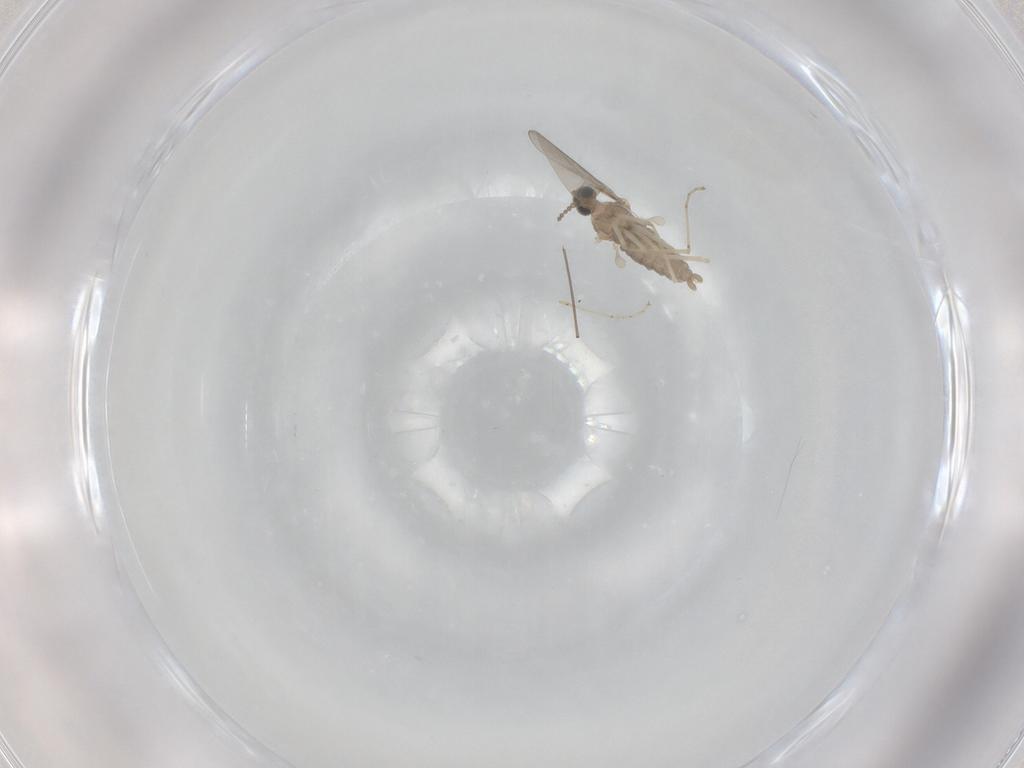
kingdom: Animalia
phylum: Arthropoda
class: Insecta
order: Diptera
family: Cecidomyiidae
